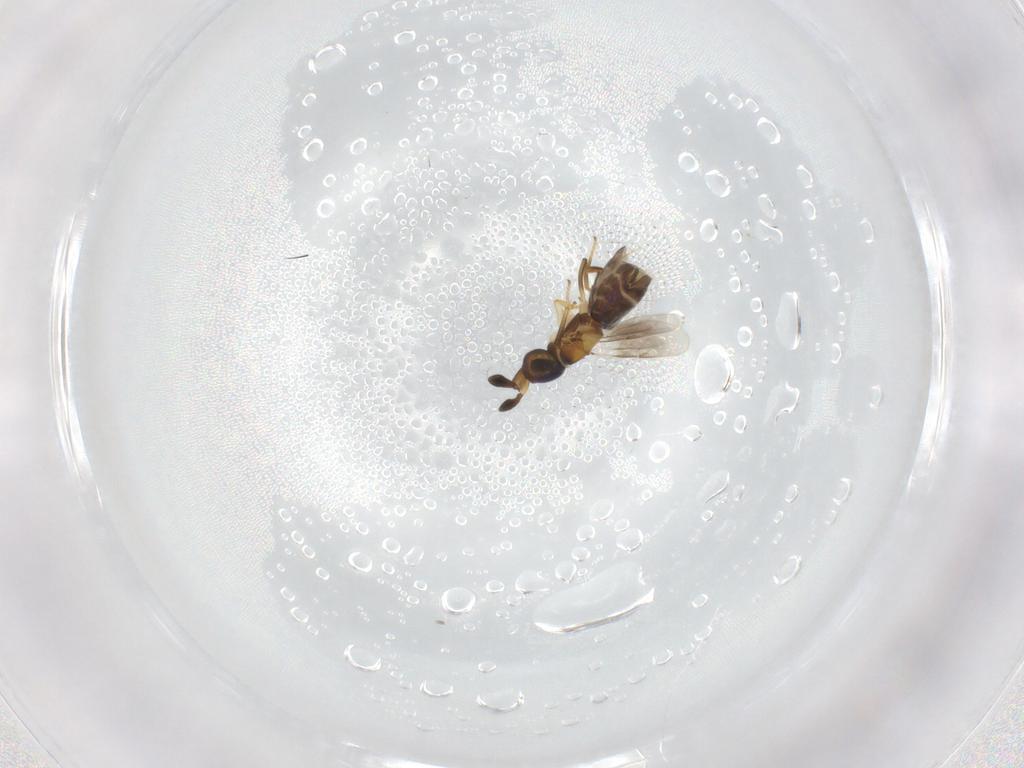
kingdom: Animalia
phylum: Arthropoda
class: Insecta
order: Hymenoptera
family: Encyrtidae
